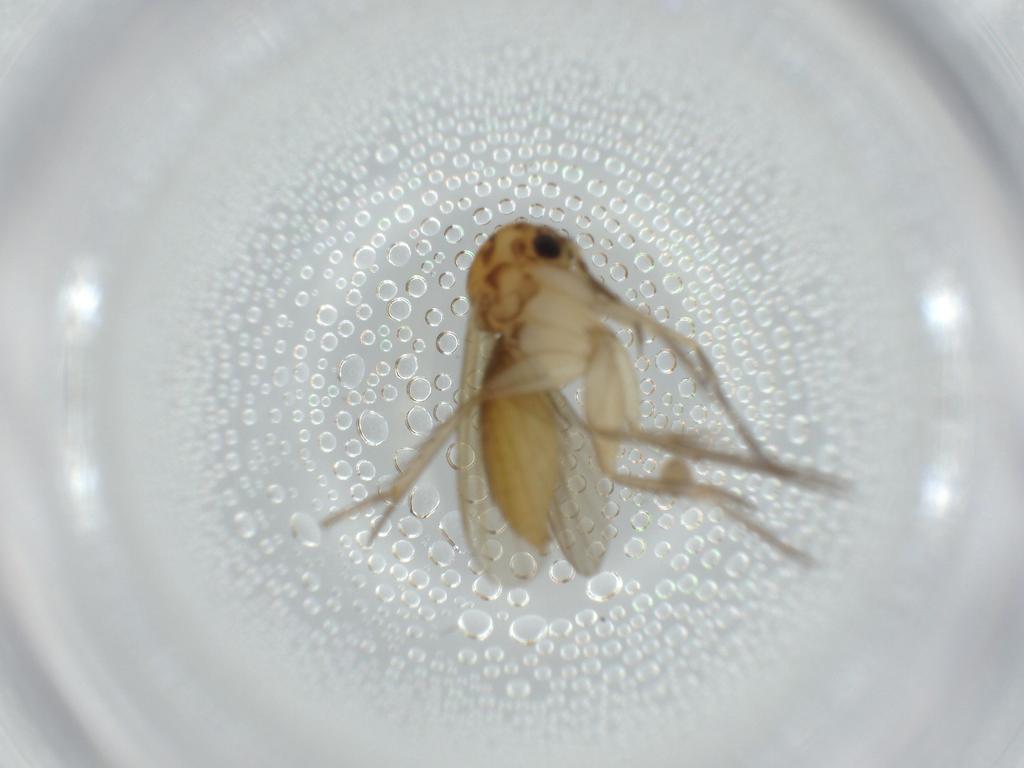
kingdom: Animalia
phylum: Arthropoda
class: Insecta
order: Diptera
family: Mycetophilidae
